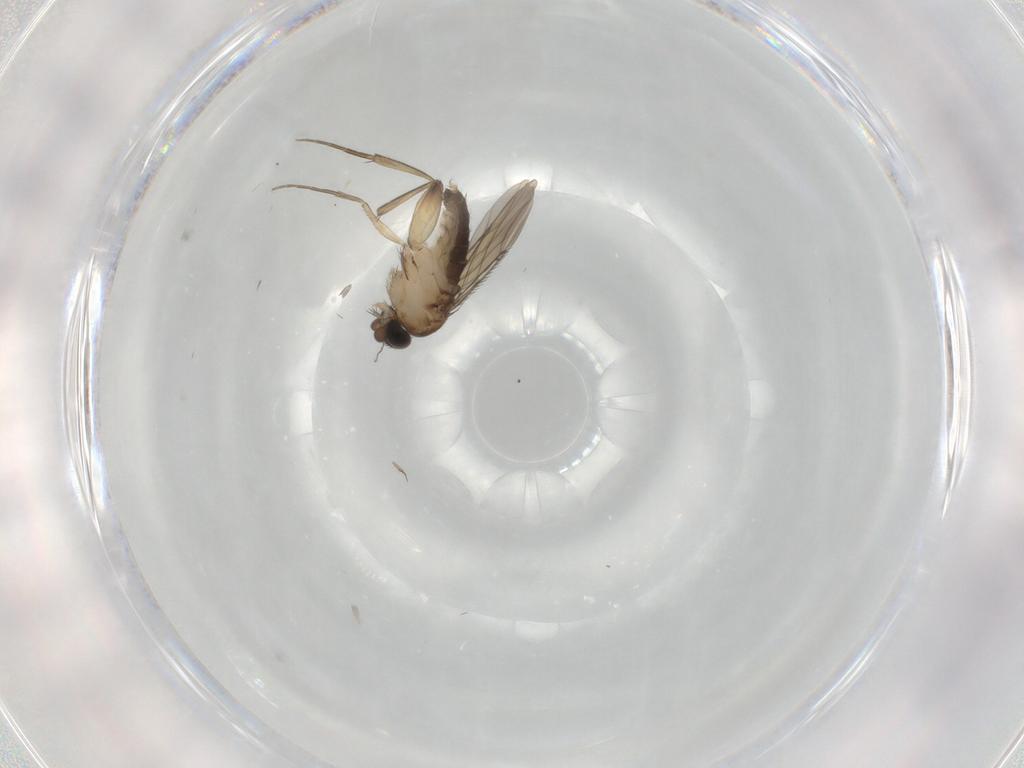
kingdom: Animalia
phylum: Arthropoda
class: Insecta
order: Diptera
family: Phoridae
